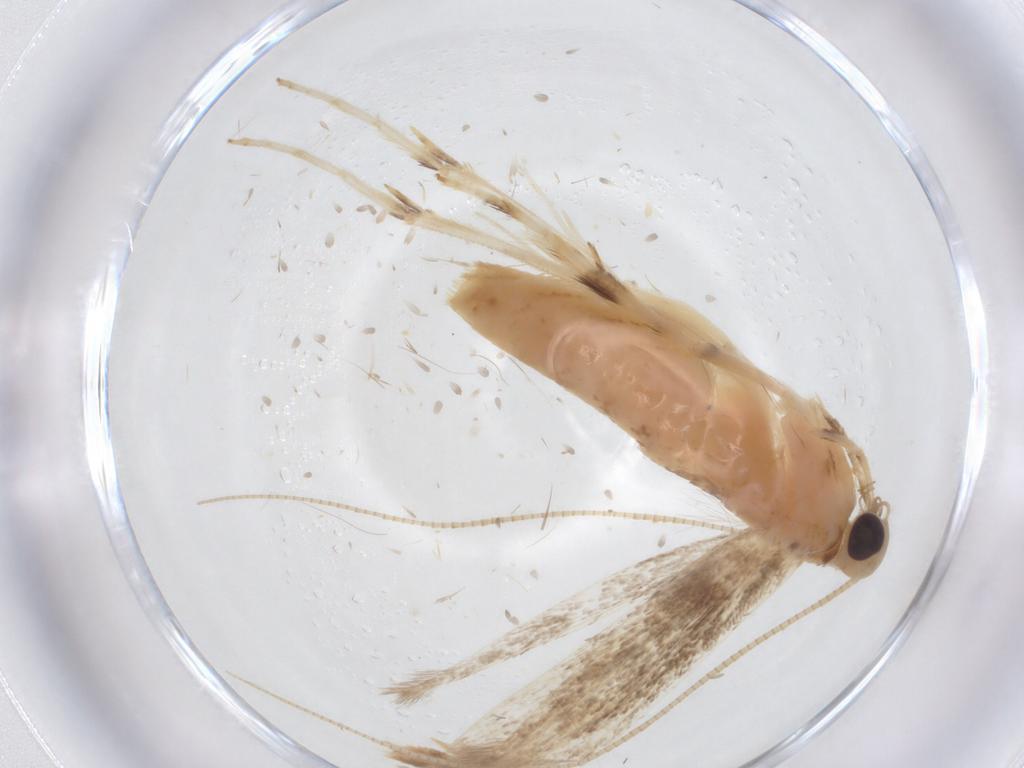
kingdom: Animalia
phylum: Arthropoda
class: Insecta
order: Lepidoptera
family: Gracillariidae
